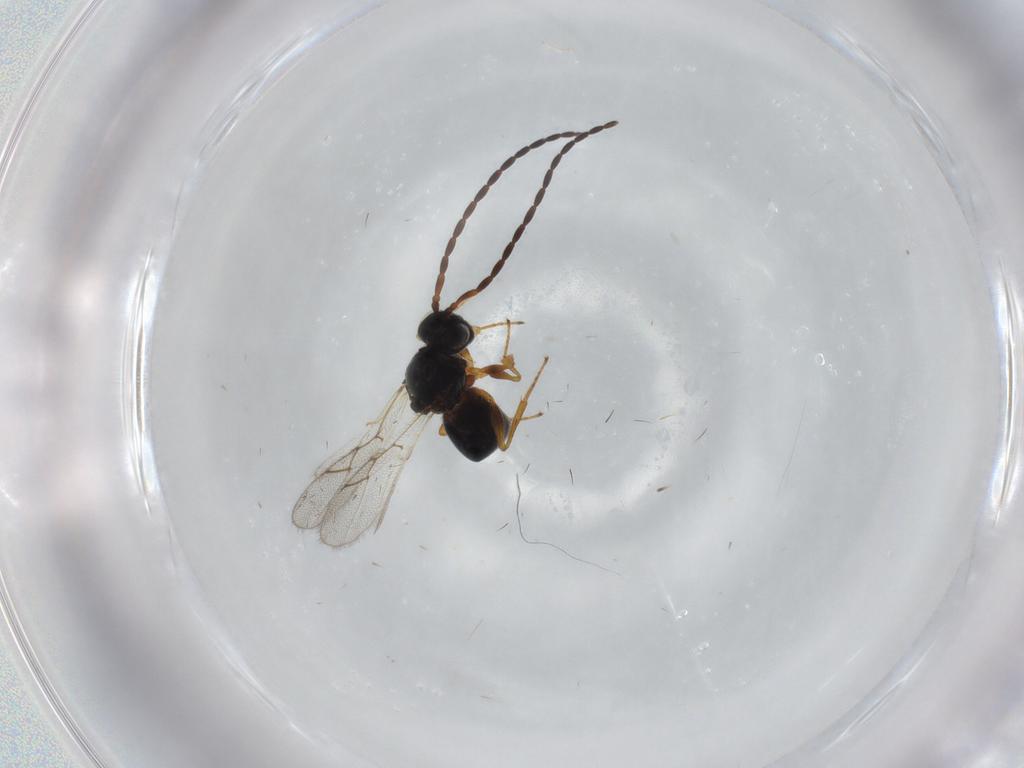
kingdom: Animalia
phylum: Arthropoda
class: Insecta
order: Hymenoptera
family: Figitidae
